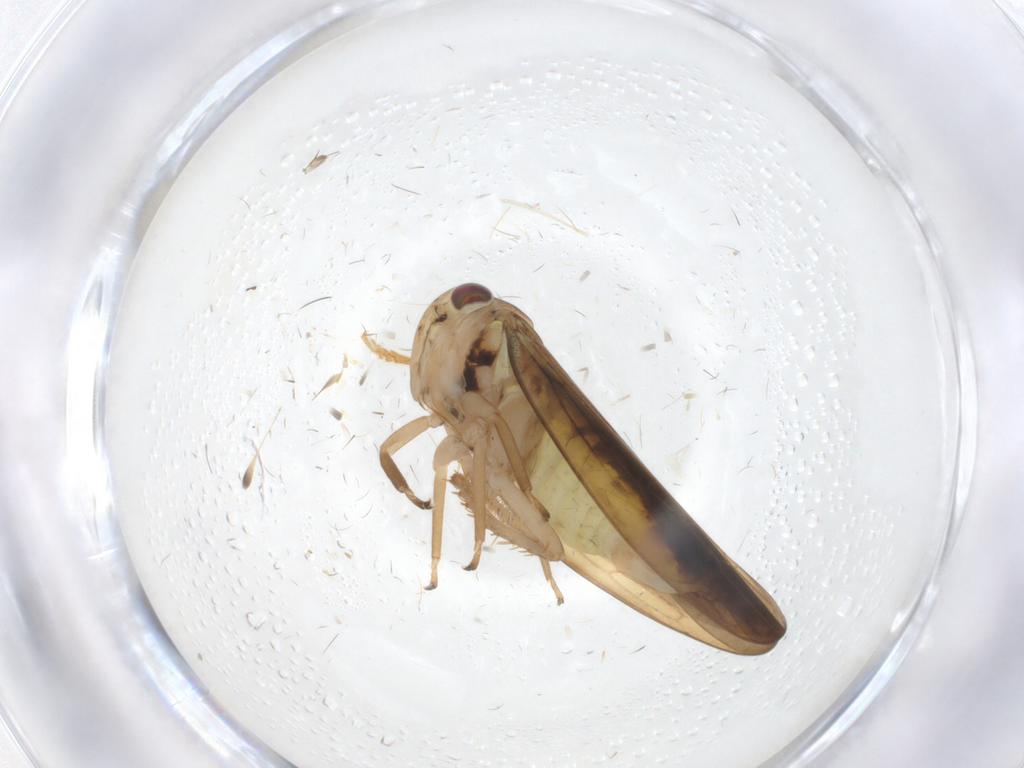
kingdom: Animalia
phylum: Arthropoda
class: Insecta
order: Hemiptera
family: Cicadellidae
